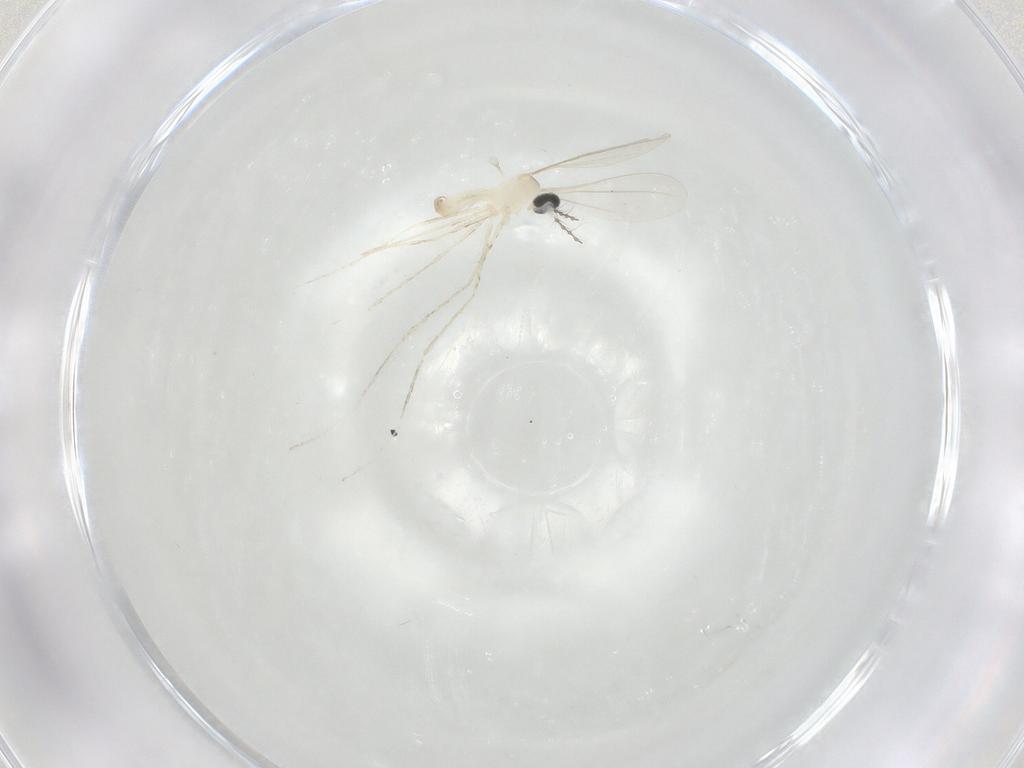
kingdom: Animalia
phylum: Arthropoda
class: Insecta
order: Diptera
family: Cecidomyiidae
